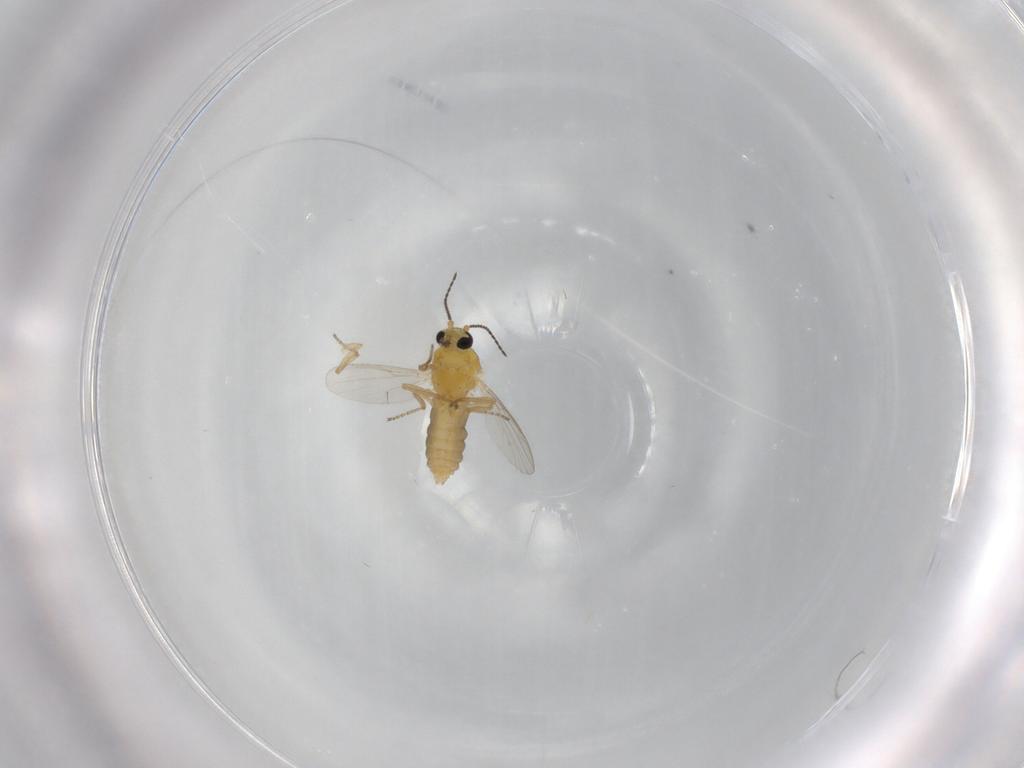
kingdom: Animalia
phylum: Arthropoda
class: Insecta
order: Diptera
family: Ceratopogonidae
